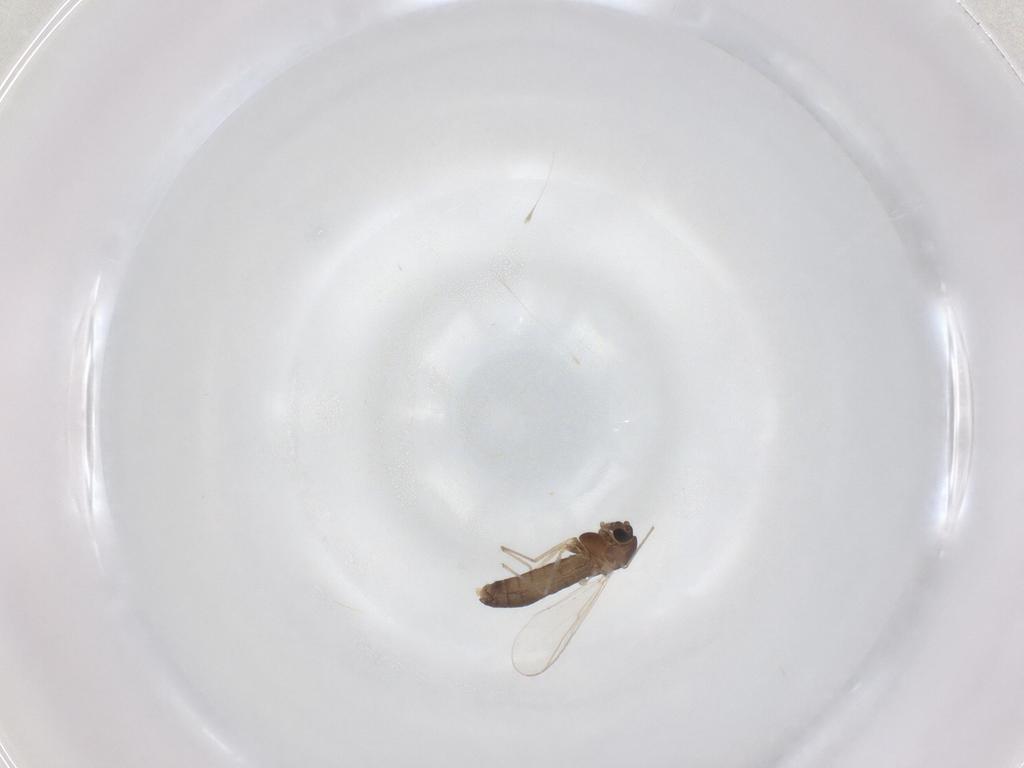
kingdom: Animalia
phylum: Arthropoda
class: Insecta
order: Diptera
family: Chironomidae
